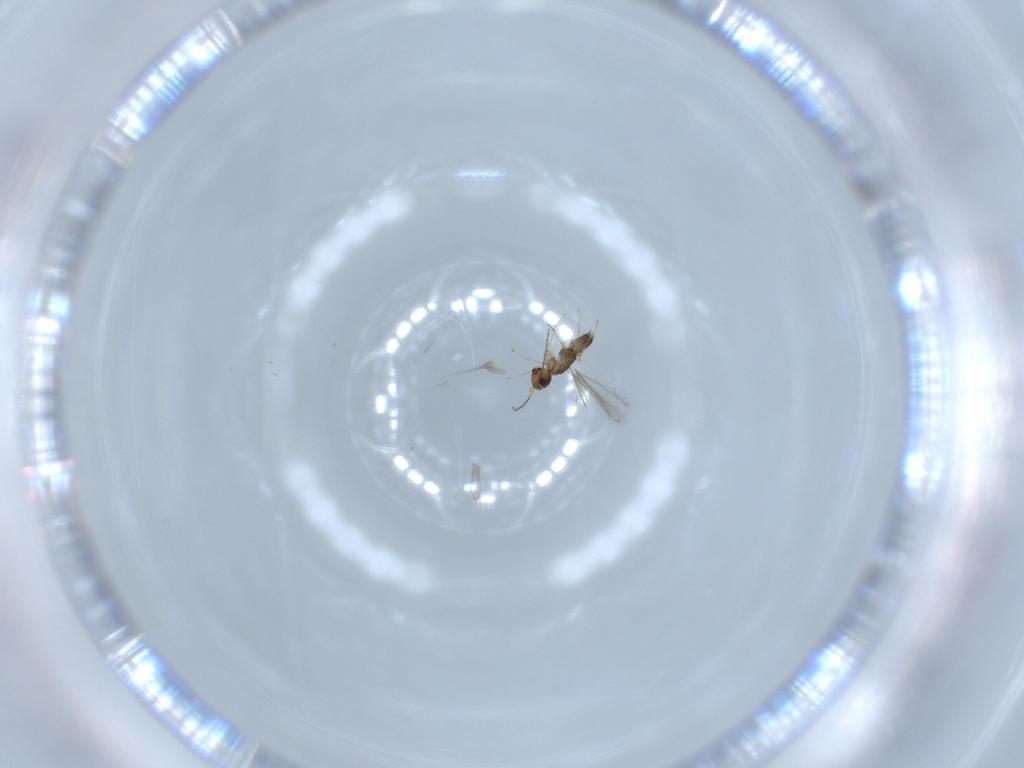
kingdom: Animalia
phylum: Arthropoda
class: Insecta
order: Hymenoptera
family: Mymaridae
